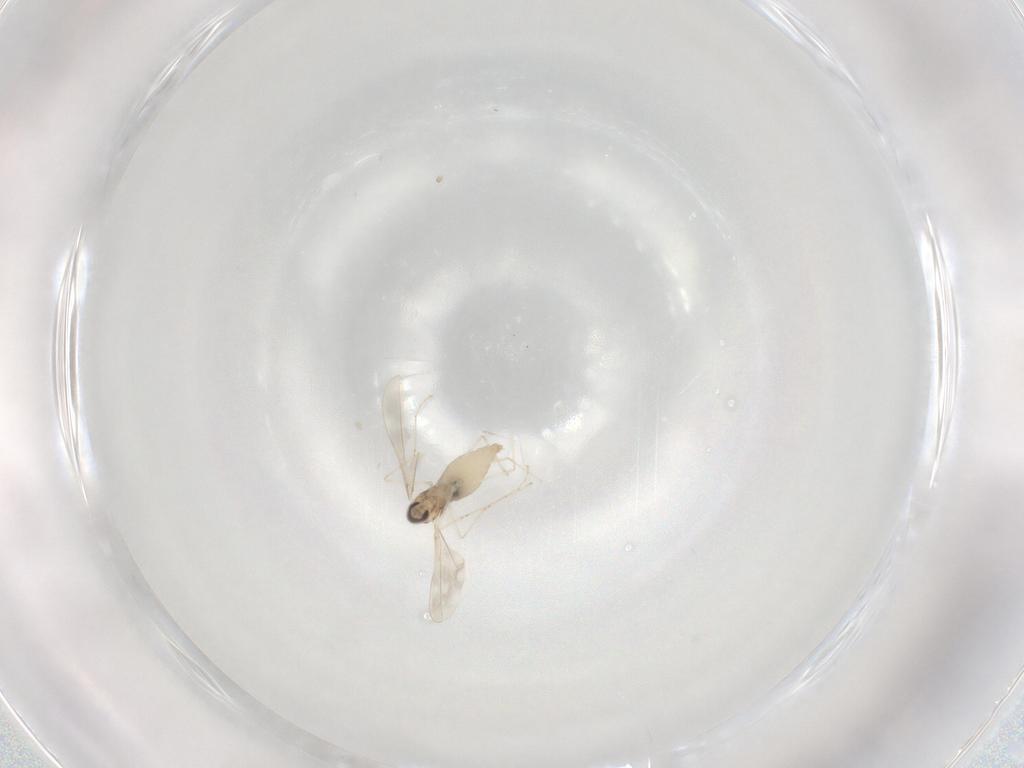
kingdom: Animalia
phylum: Arthropoda
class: Insecta
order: Diptera
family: Cecidomyiidae
